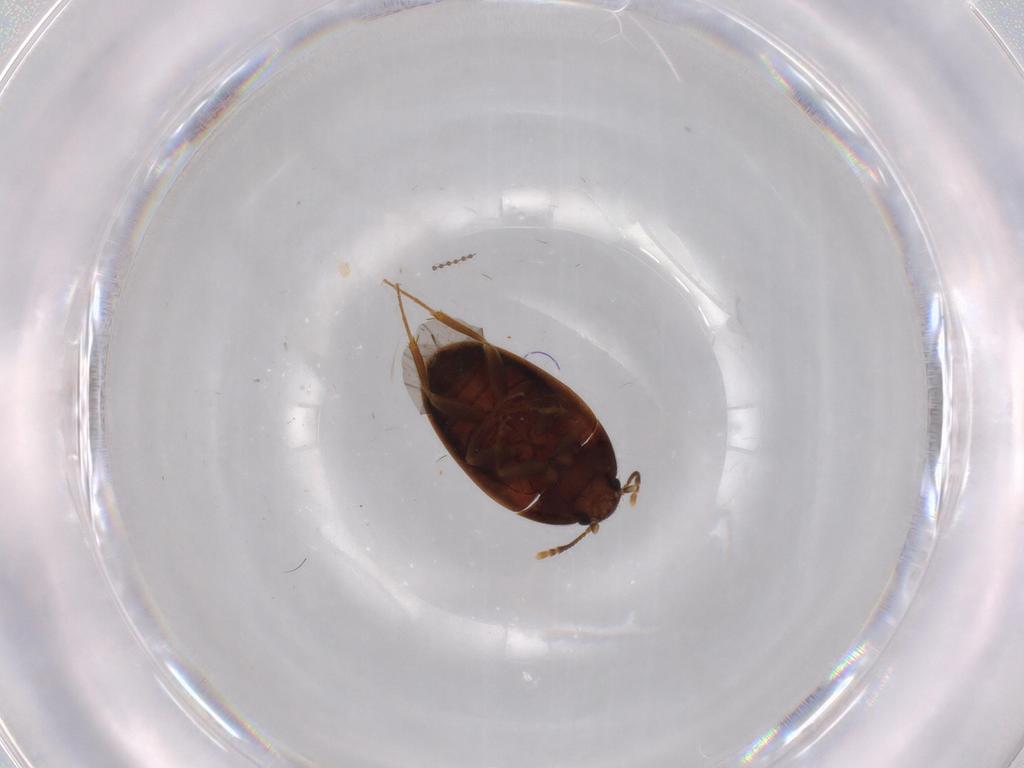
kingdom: Animalia
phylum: Arthropoda
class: Insecta
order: Coleoptera
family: Mycetophagidae
